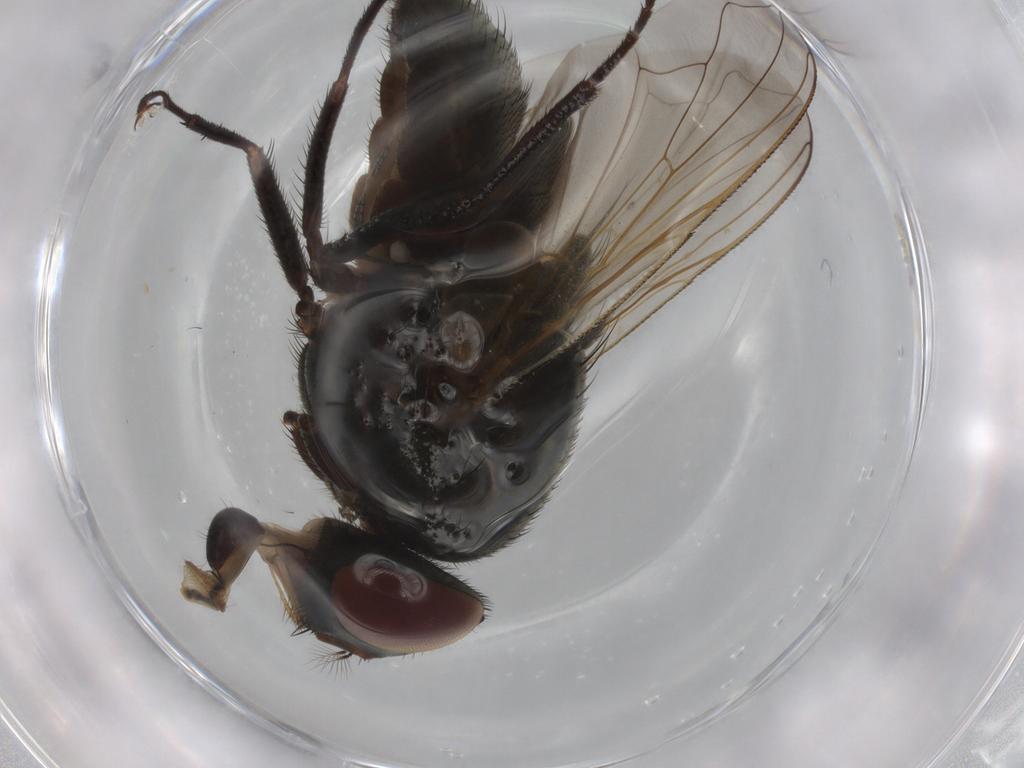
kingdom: Animalia
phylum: Arthropoda
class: Insecta
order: Diptera
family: Muscidae
